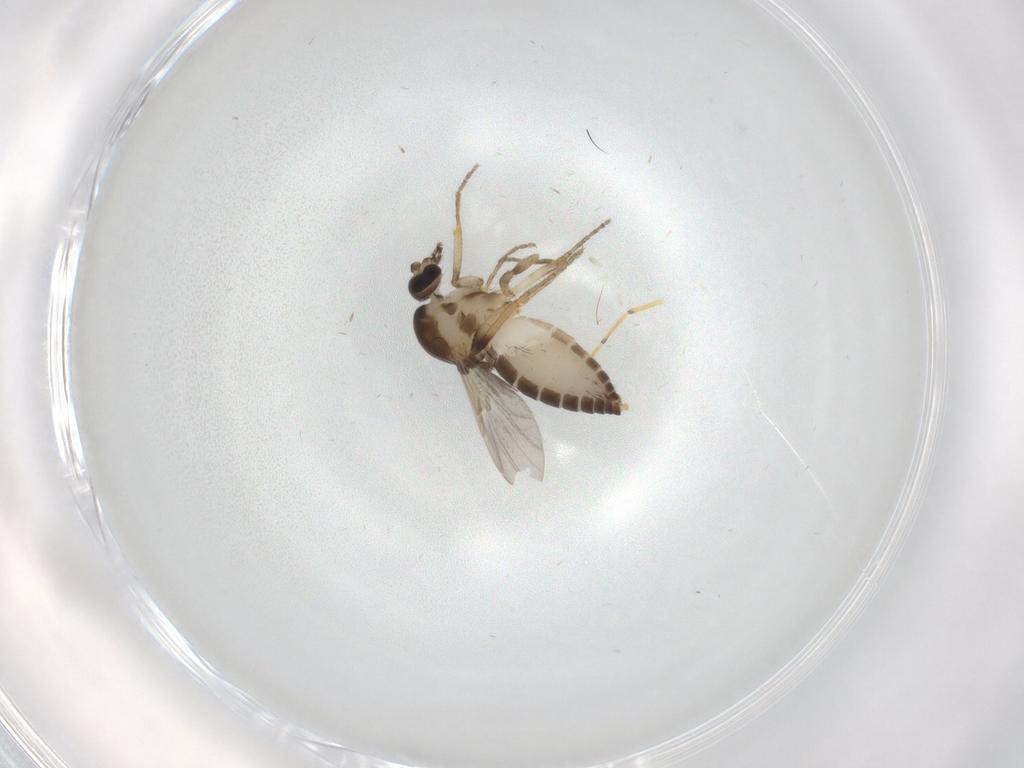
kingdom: Animalia
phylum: Arthropoda
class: Insecta
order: Diptera
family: Ceratopogonidae
